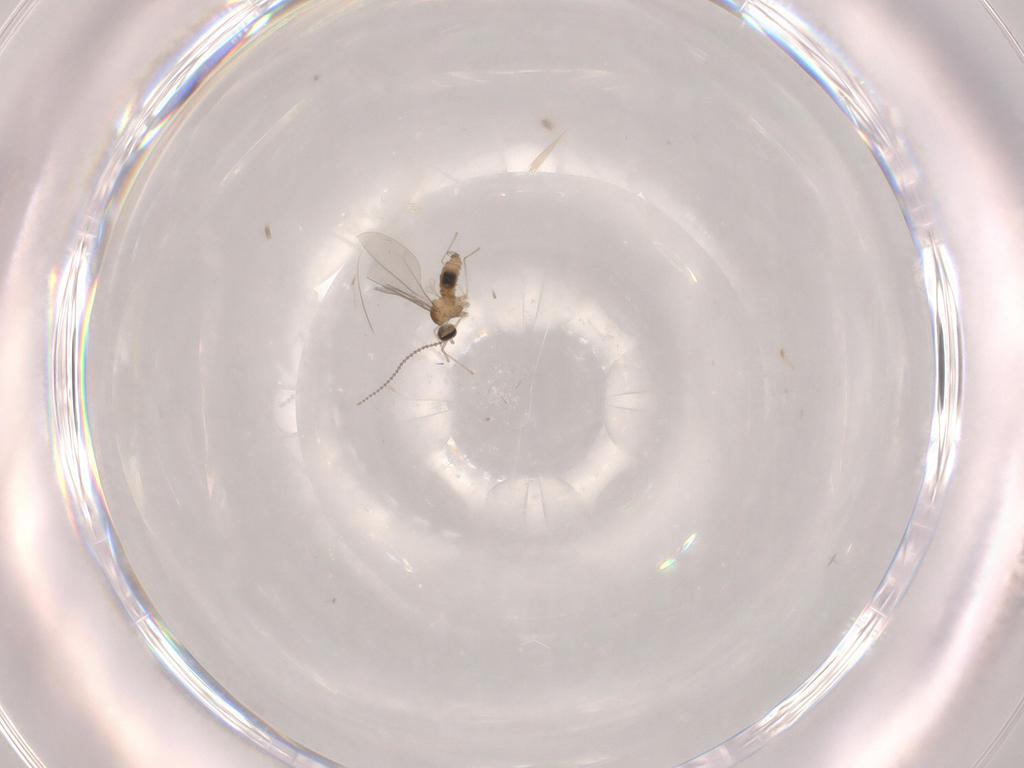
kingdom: Animalia
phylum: Arthropoda
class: Insecta
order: Diptera
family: Cecidomyiidae
